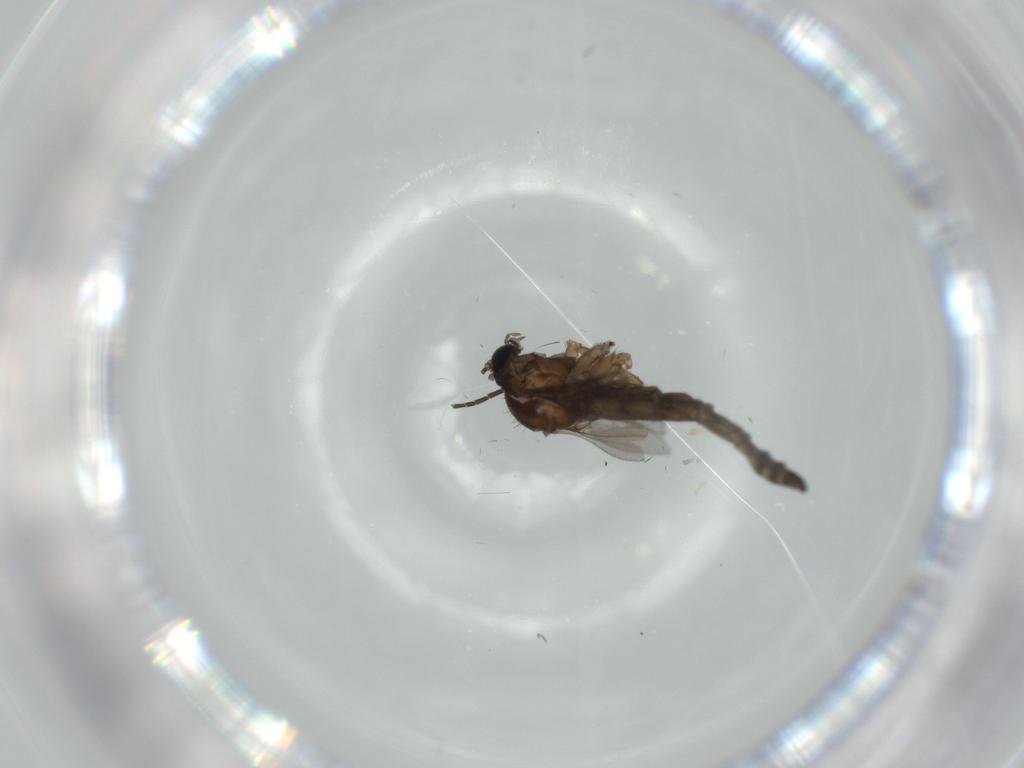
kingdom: Animalia
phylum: Arthropoda
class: Insecta
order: Diptera
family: Sciaridae
